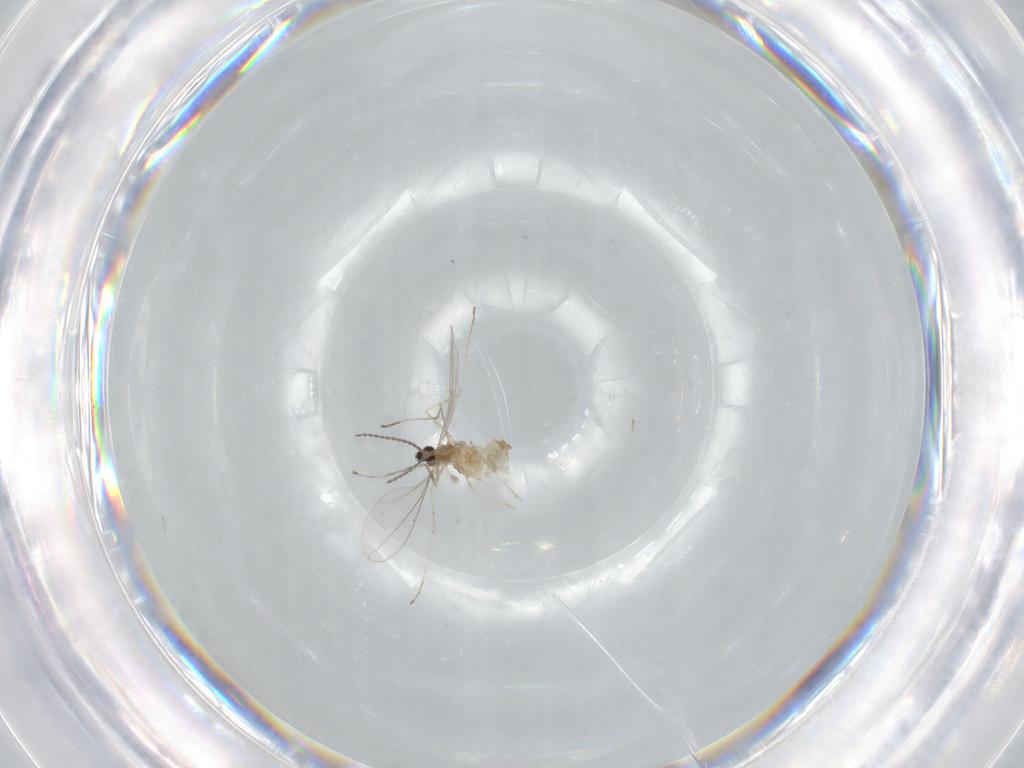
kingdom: Animalia
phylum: Arthropoda
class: Insecta
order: Diptera
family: Cecidomyiidae
